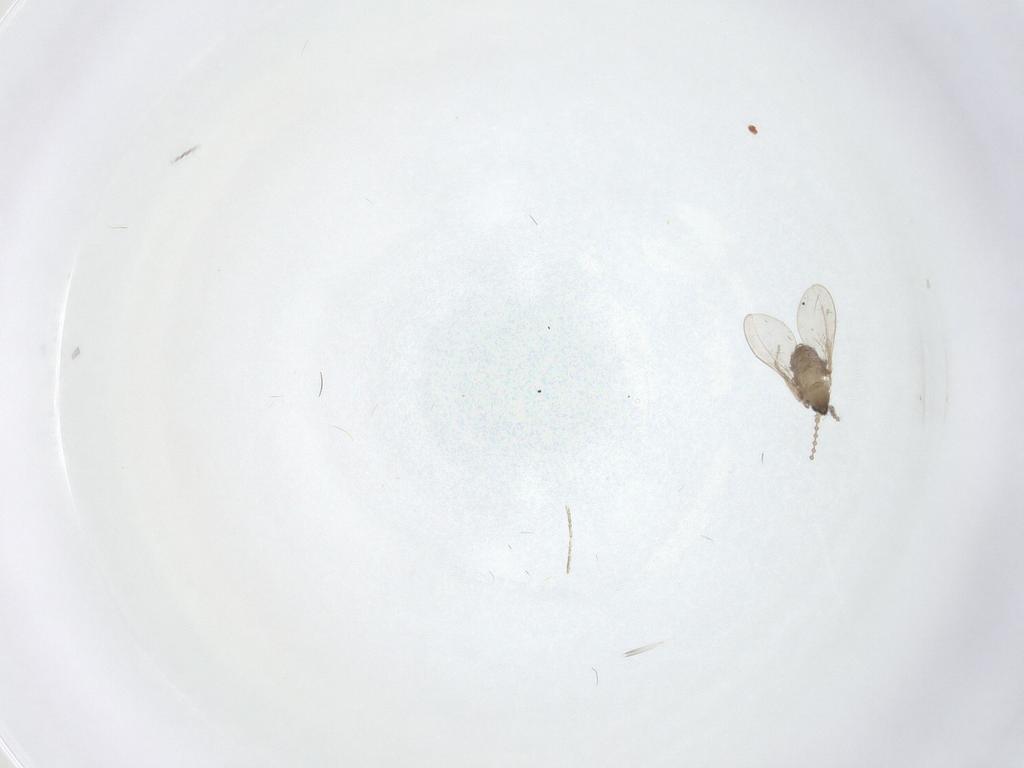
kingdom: Animalia
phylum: Arthropoda
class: Insecta
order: Diptera
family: Cecidomyiidae
